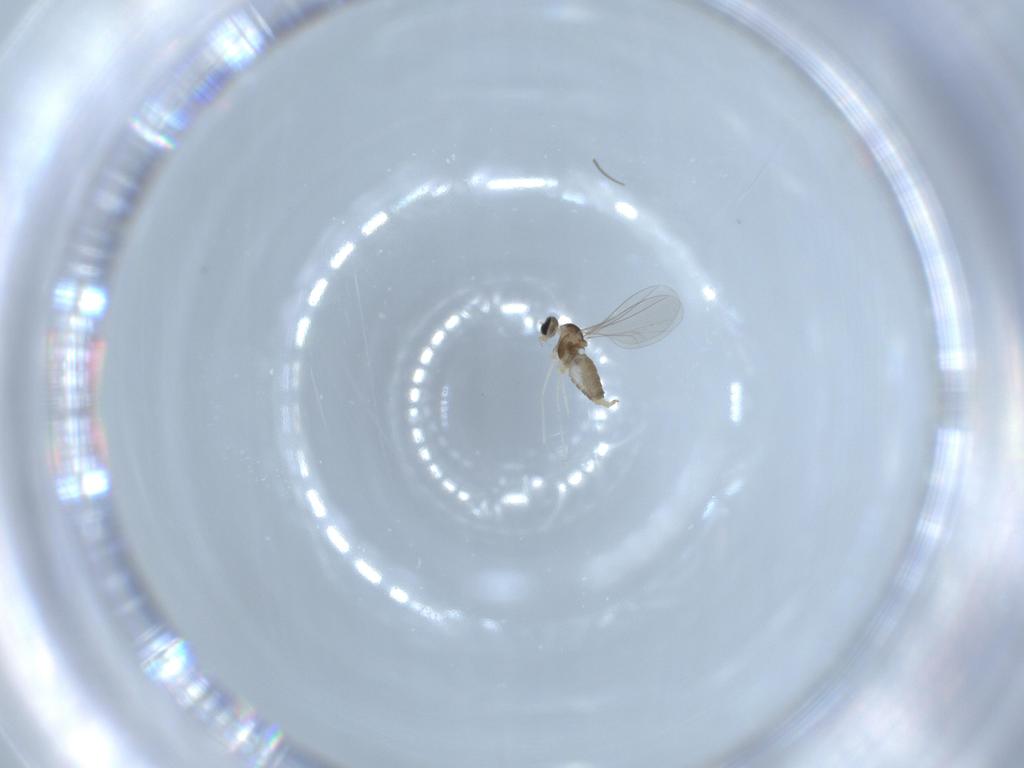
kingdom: Animalia
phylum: Arthropoda
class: Insecta
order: Diptera
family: Cecidomyiidae
